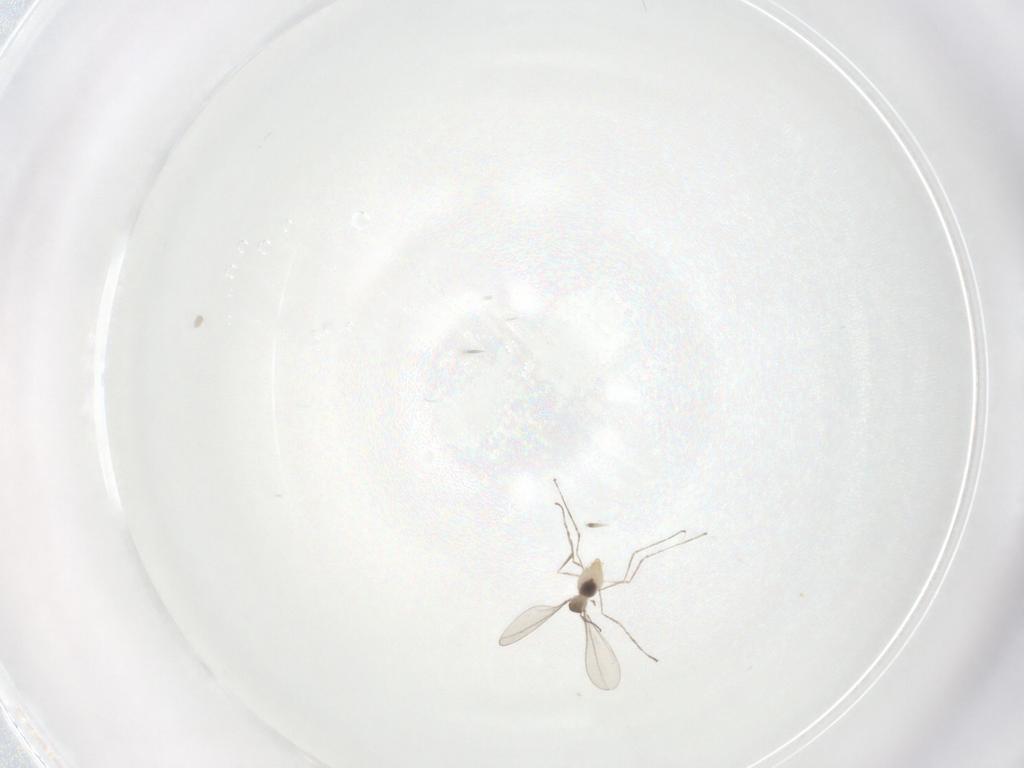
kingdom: Animalia
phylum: Arthropoda
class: Insecta
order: Diptera
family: Cecidomyiidae
